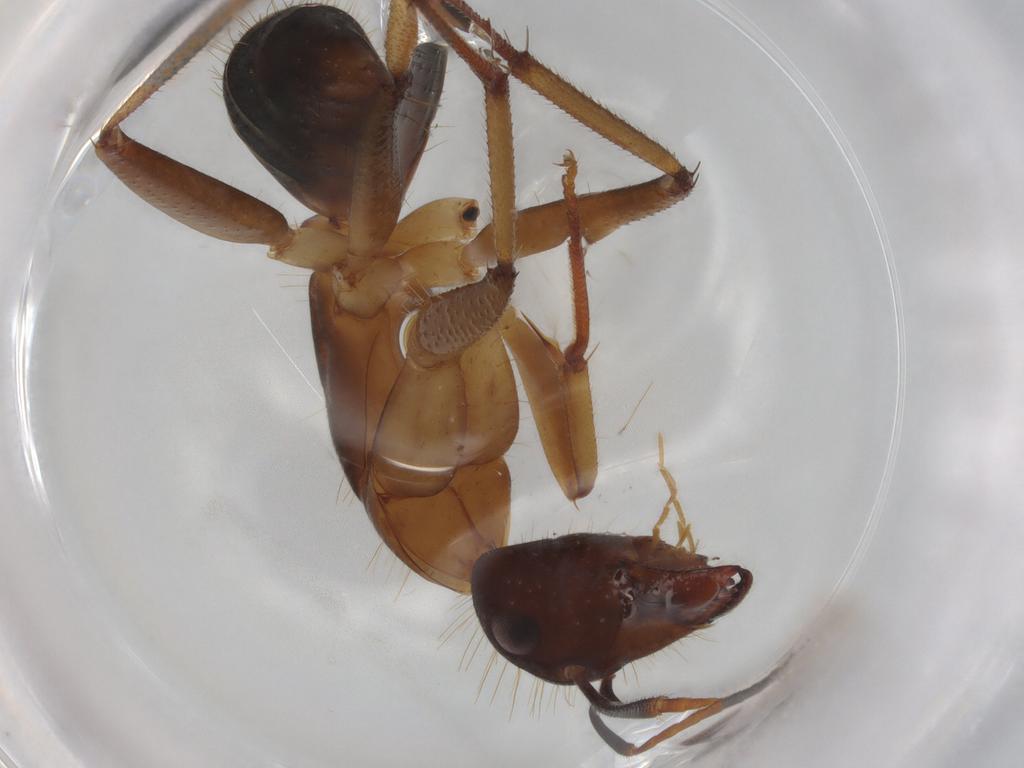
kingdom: Animalia
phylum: Arthropoda
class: Insecta
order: Hymenoptera
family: Formicidae
